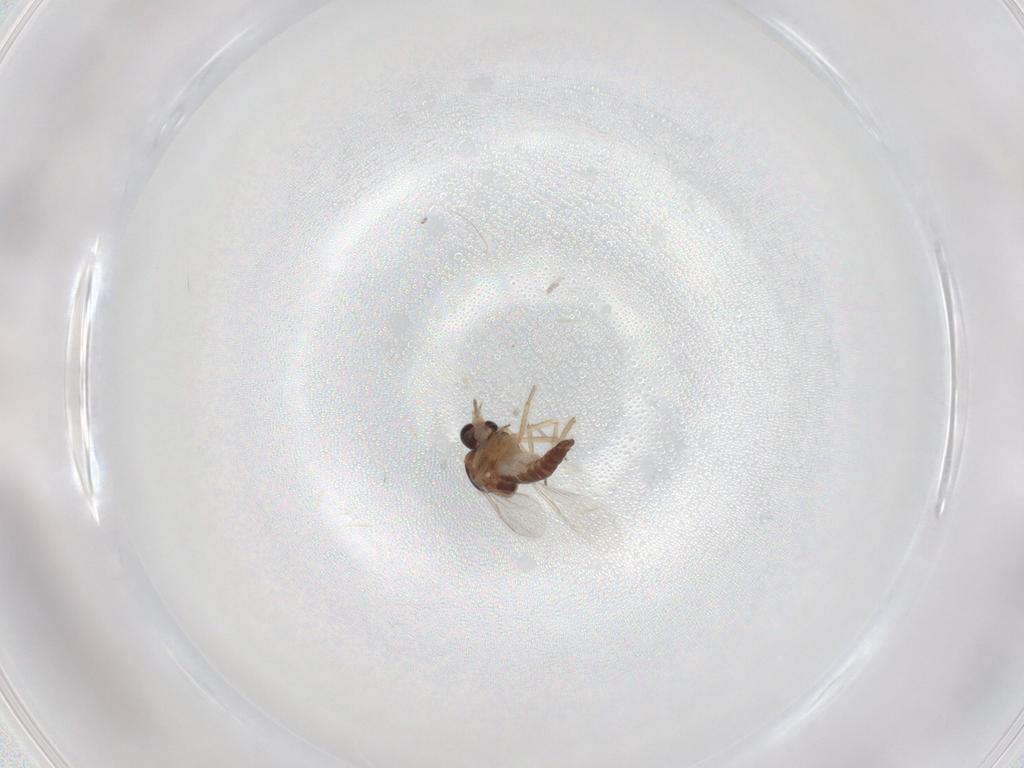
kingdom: Animalia
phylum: Arthropoda
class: Insecta
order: Diptera
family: Ceratopogonidae
